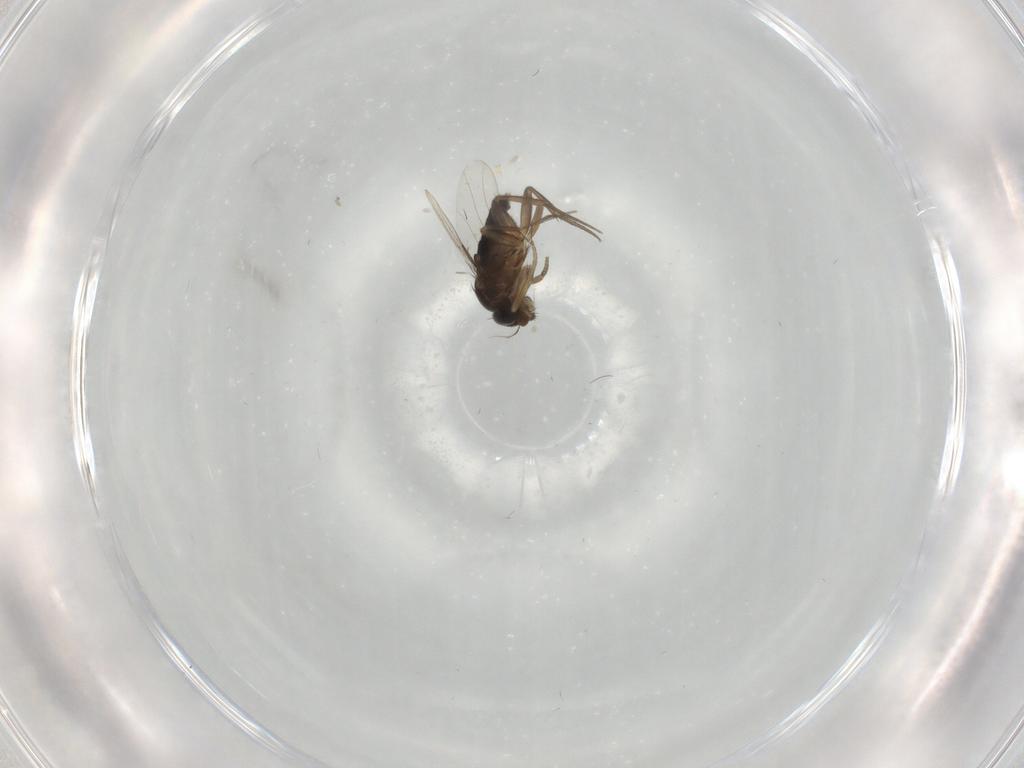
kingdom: Animalia
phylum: Arthropoda
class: Insecta
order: Diptera
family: Phoridae
